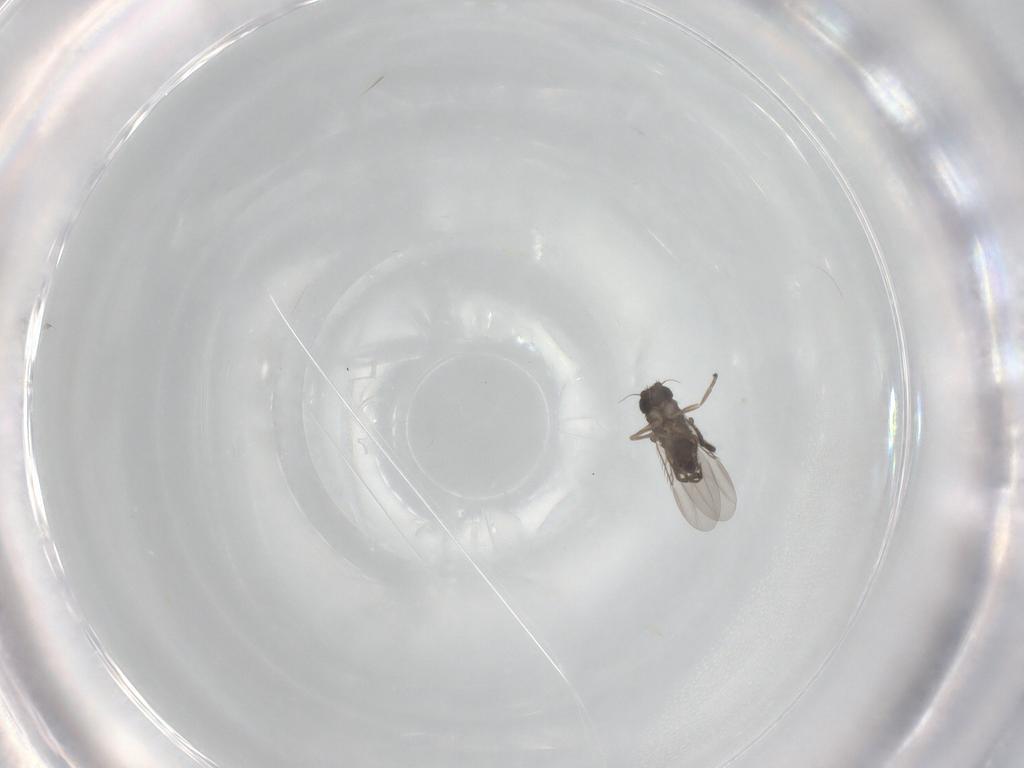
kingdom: Animalia
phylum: Arthropoda
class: Insecta
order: Diptera
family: Phoridae
